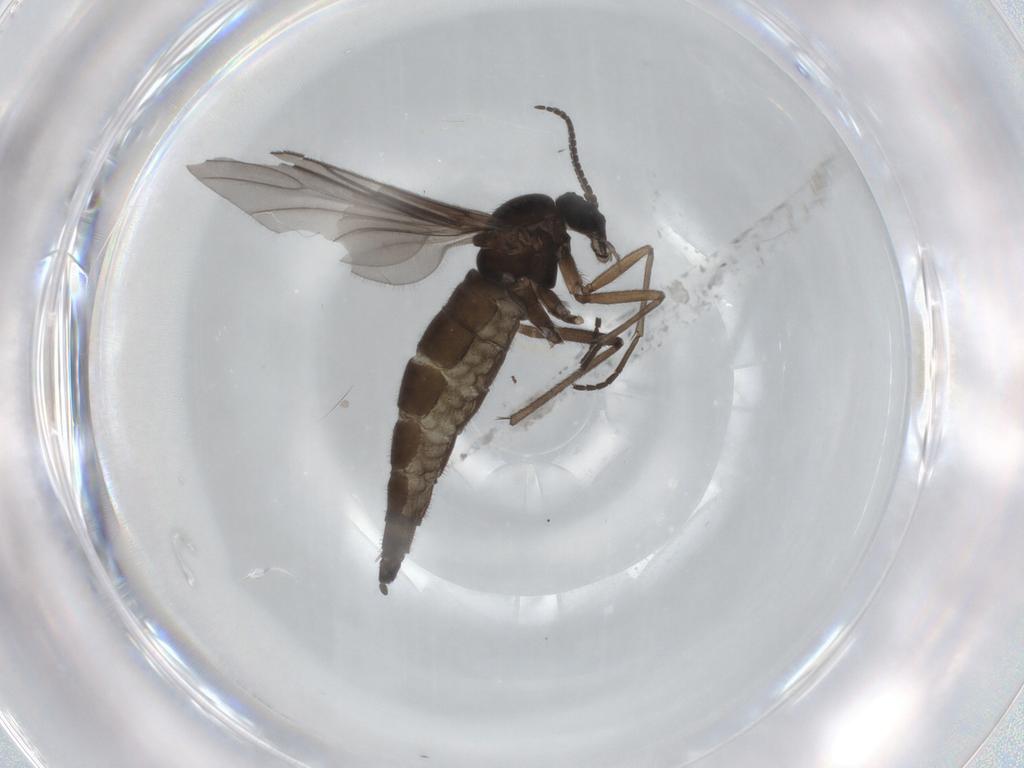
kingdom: Animalia
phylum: Arthropoda
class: Insecta
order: Diptera
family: Sciaridae
